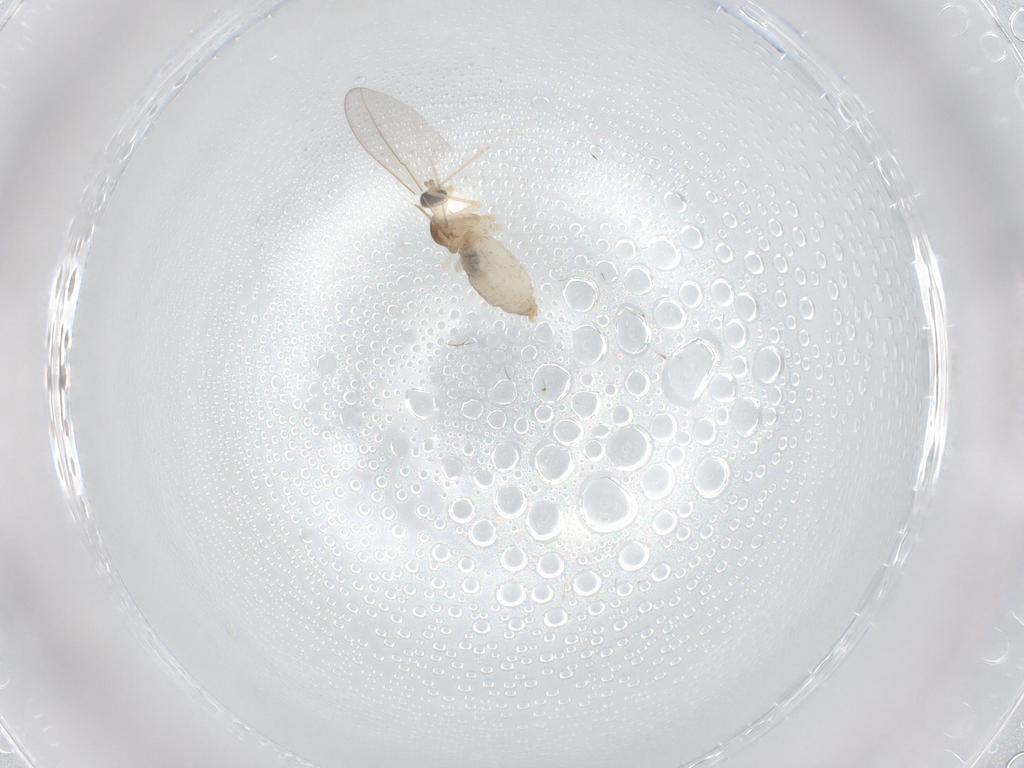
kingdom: Animalia
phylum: Arthropoda
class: Insecta
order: Diptera
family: Cecidomyiidae
